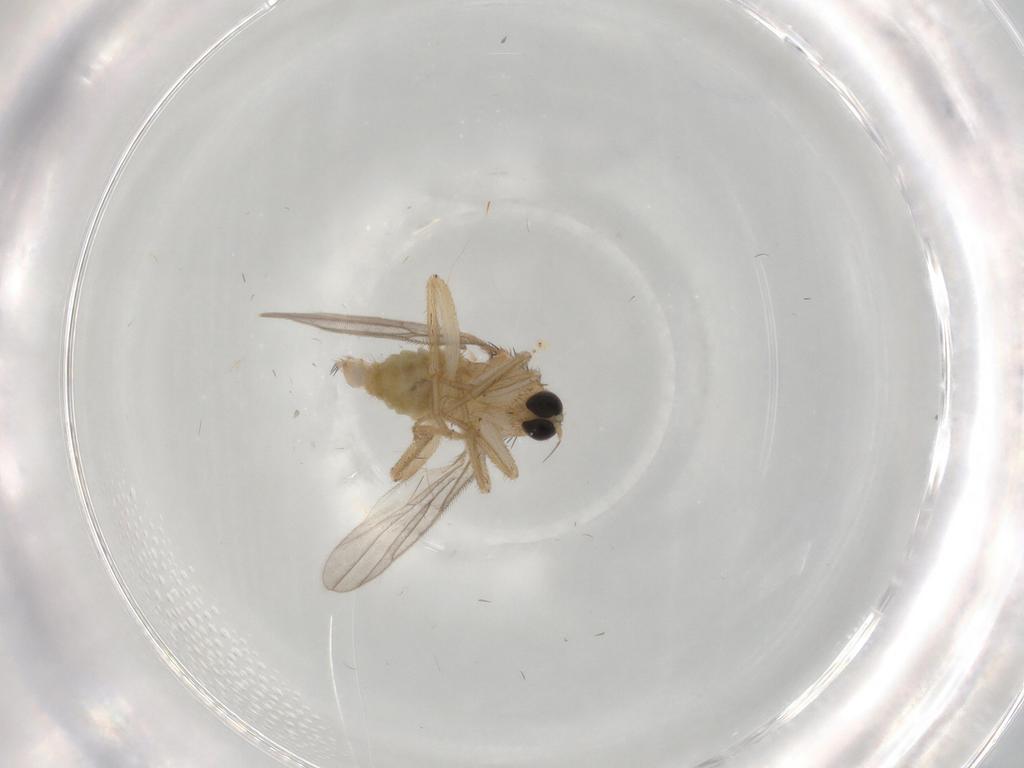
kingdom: Animalia
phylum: Arthropoda
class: Insecta
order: Diptera
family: Hybotidae
